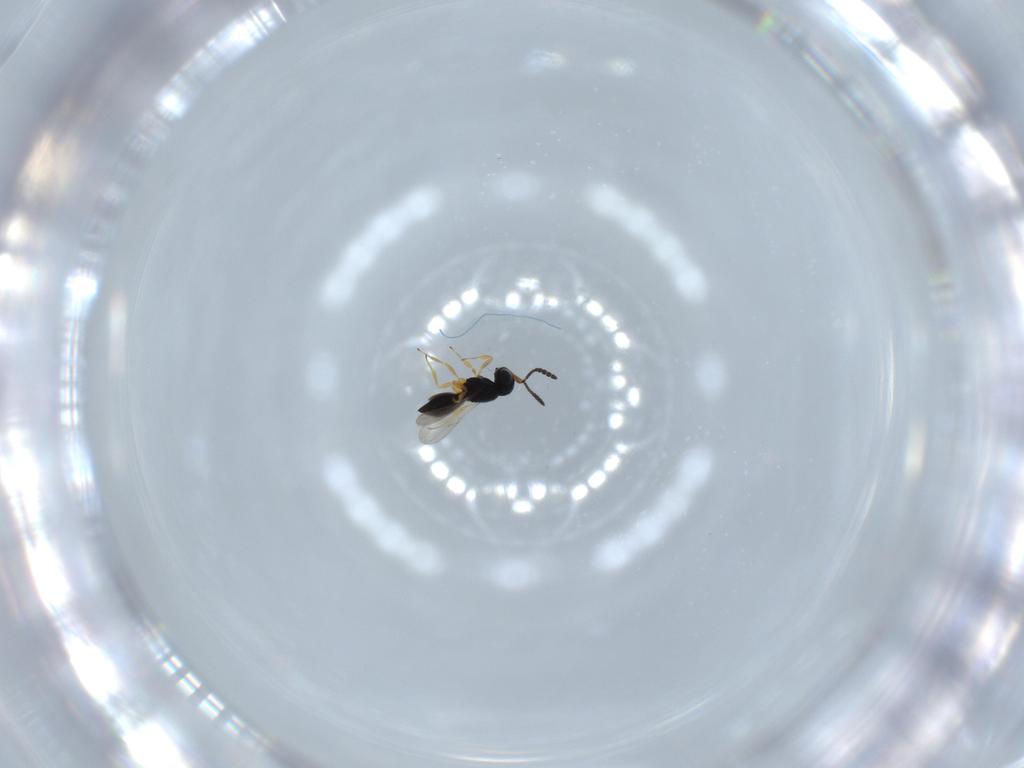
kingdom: Animalia
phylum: Arthropoda
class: Insecta
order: Hymenoptera
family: Scelionidae
